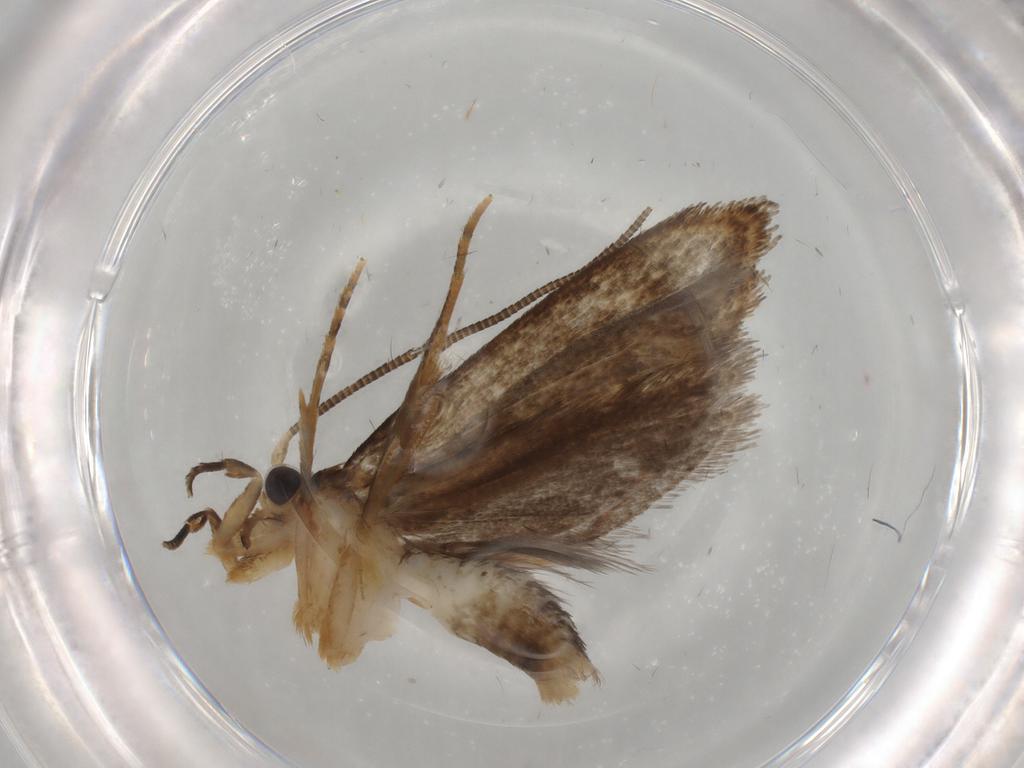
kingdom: Animalia
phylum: Arthropoda
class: Insecta
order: Lepidoptera
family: Tineidae
